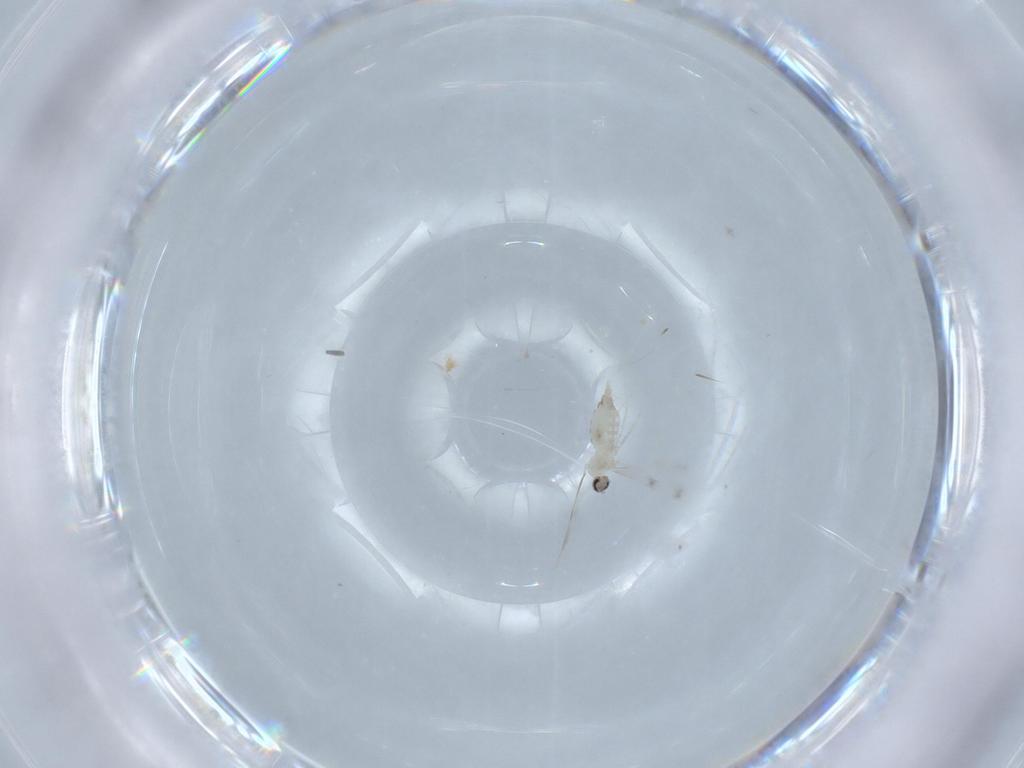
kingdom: Animalia
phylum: Arthropoda
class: Insecta
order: Diptera
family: Cecidomyiidae
